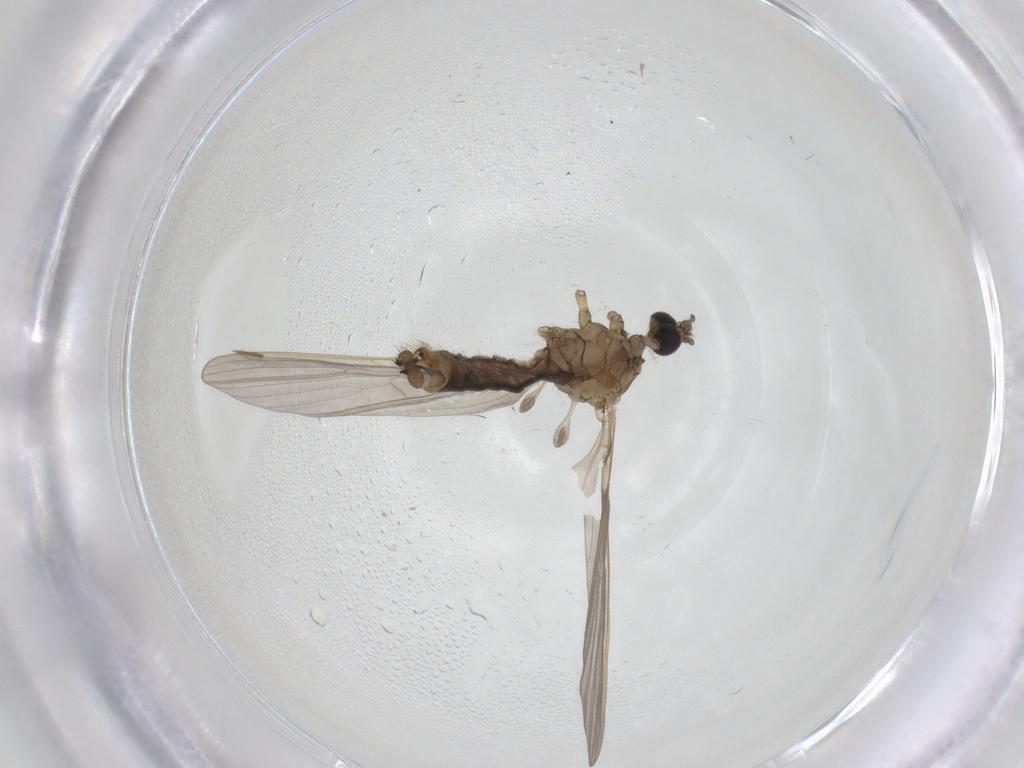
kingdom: Animalia
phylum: Arthropoda
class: Insecta
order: Diptera
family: Limoniidae
